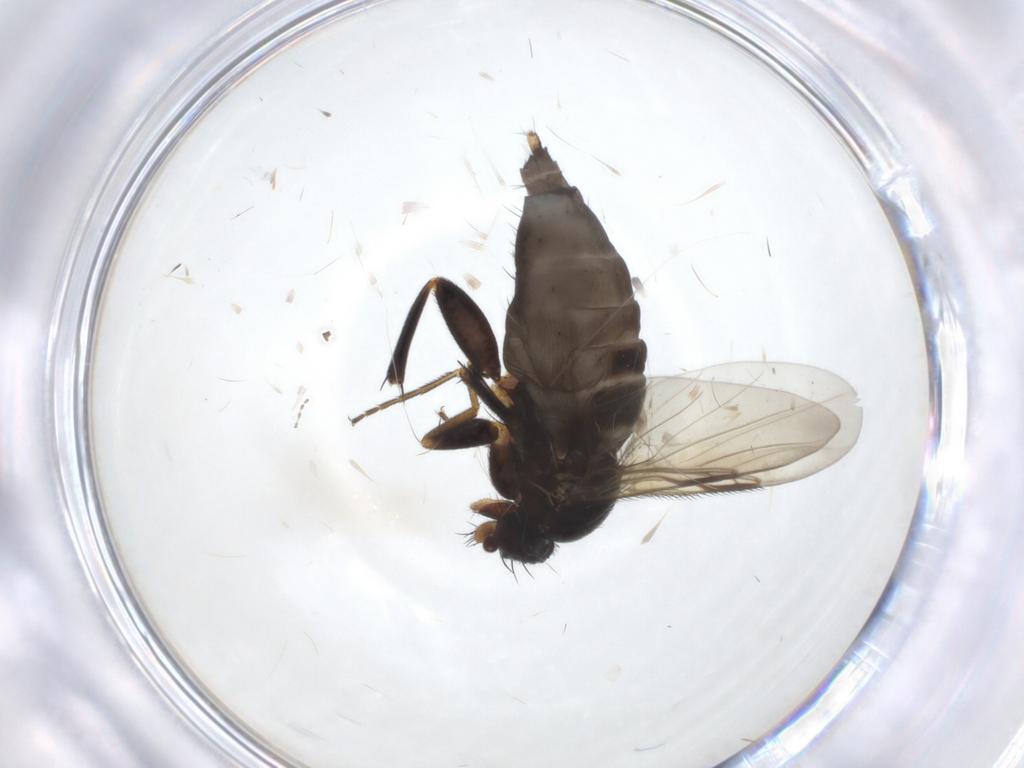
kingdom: Animalia
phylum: Arthropoda
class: Insecta
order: Diptera
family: Phoridae
